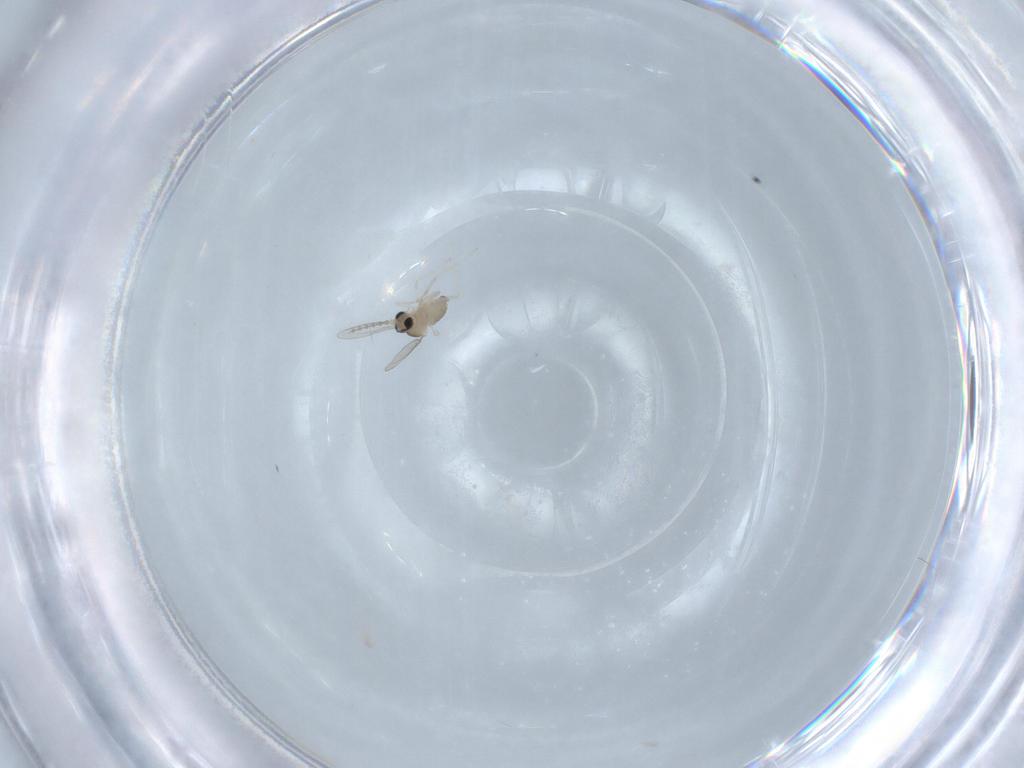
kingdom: Animalia
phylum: Arthropoda
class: Insecta
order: Diptera
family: Cecidomyiidae
